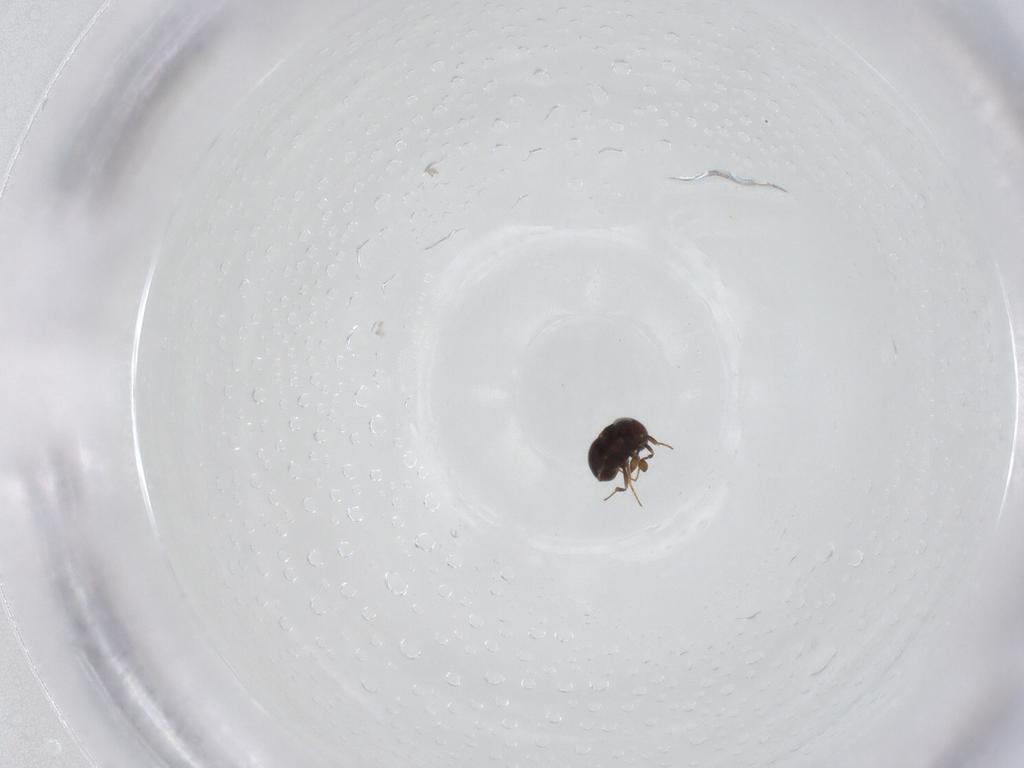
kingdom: Animalia
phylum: Arthropoda
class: Insecta
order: Hymenoptera
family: Scelionidae
